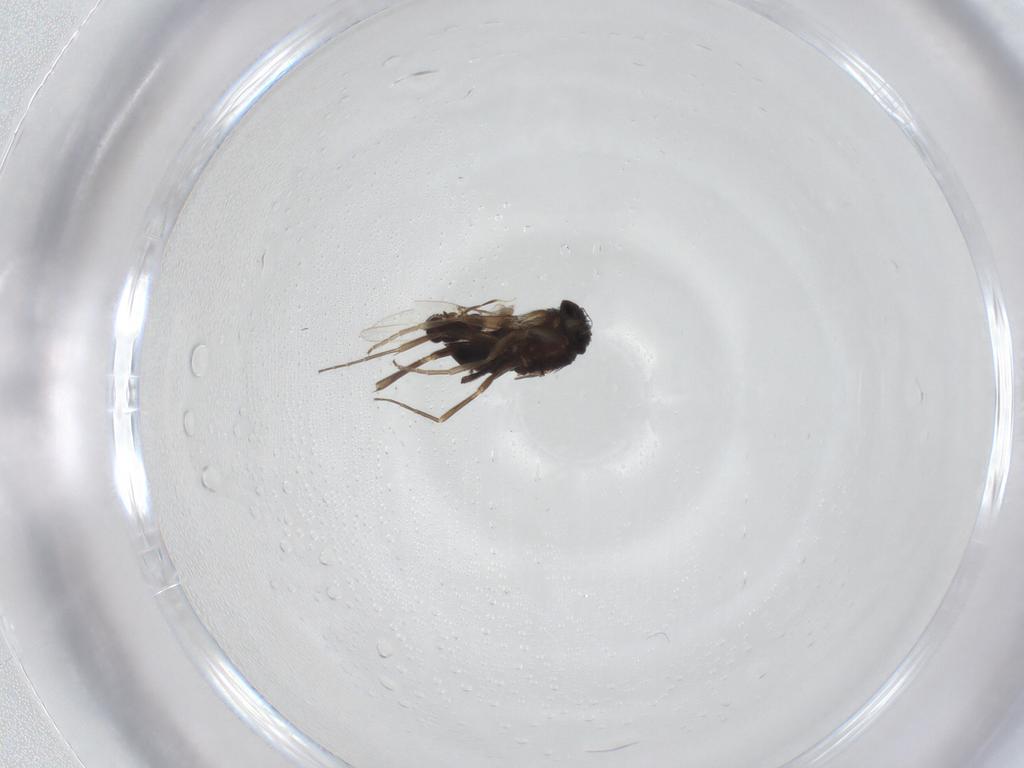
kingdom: Animalia
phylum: Arthropoda
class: Insecta
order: Diptera
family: Phoridae
